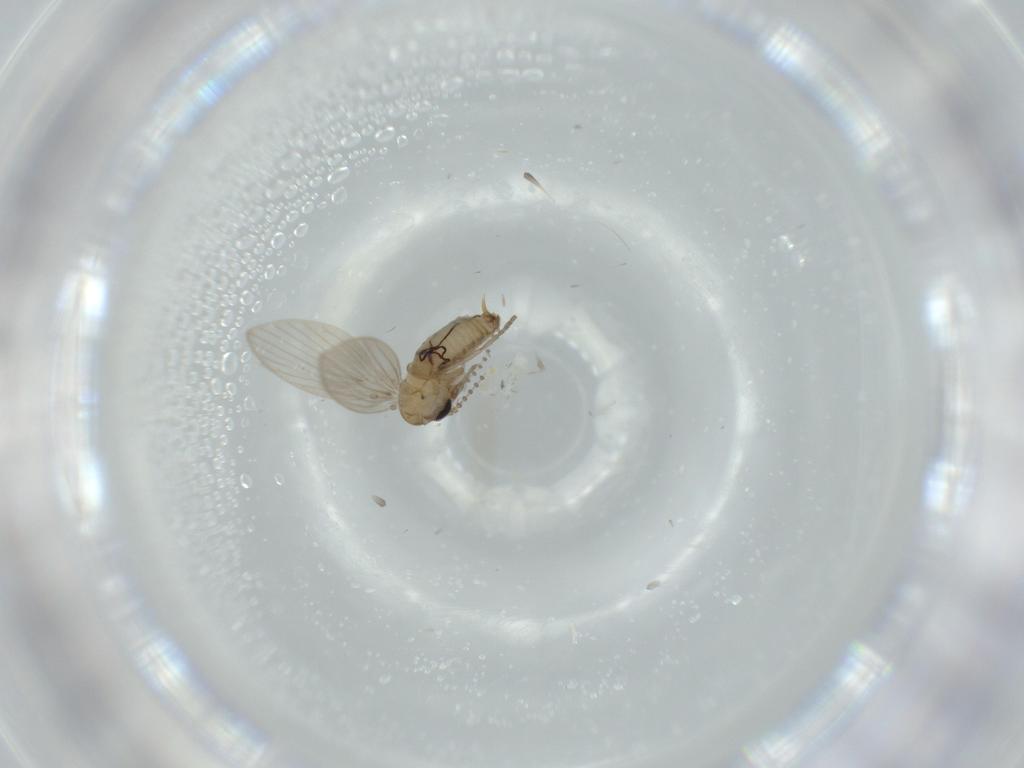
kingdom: Animalia
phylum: Arthropoda
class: Insecta
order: Diptera
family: Psychodidae
